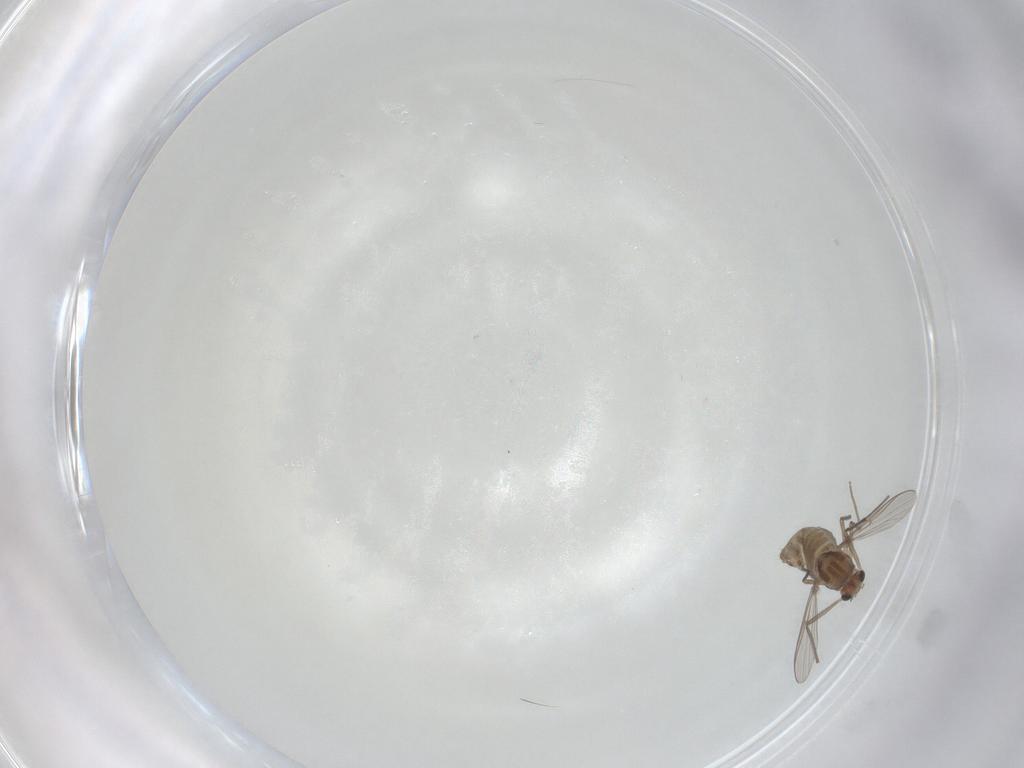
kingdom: Animalia
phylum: Arthropoda
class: Insecta
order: Diptera
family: Chironomidae
